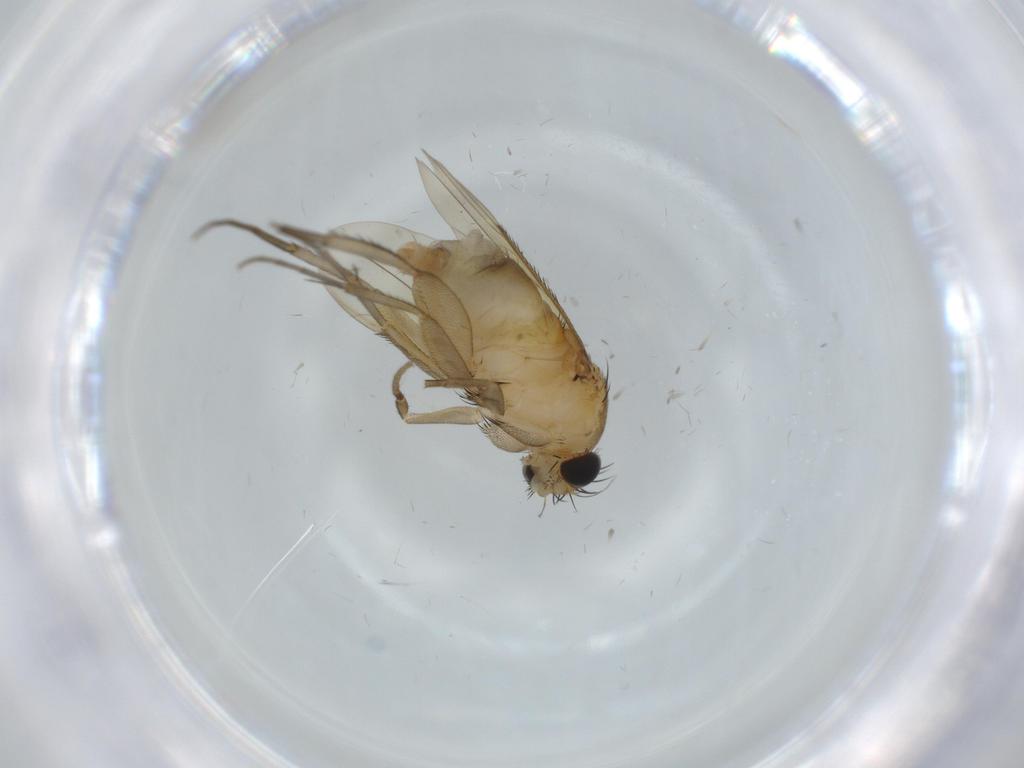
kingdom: Animalia
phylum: Arthropoda
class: Insecta
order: Diptera
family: Phoridae
